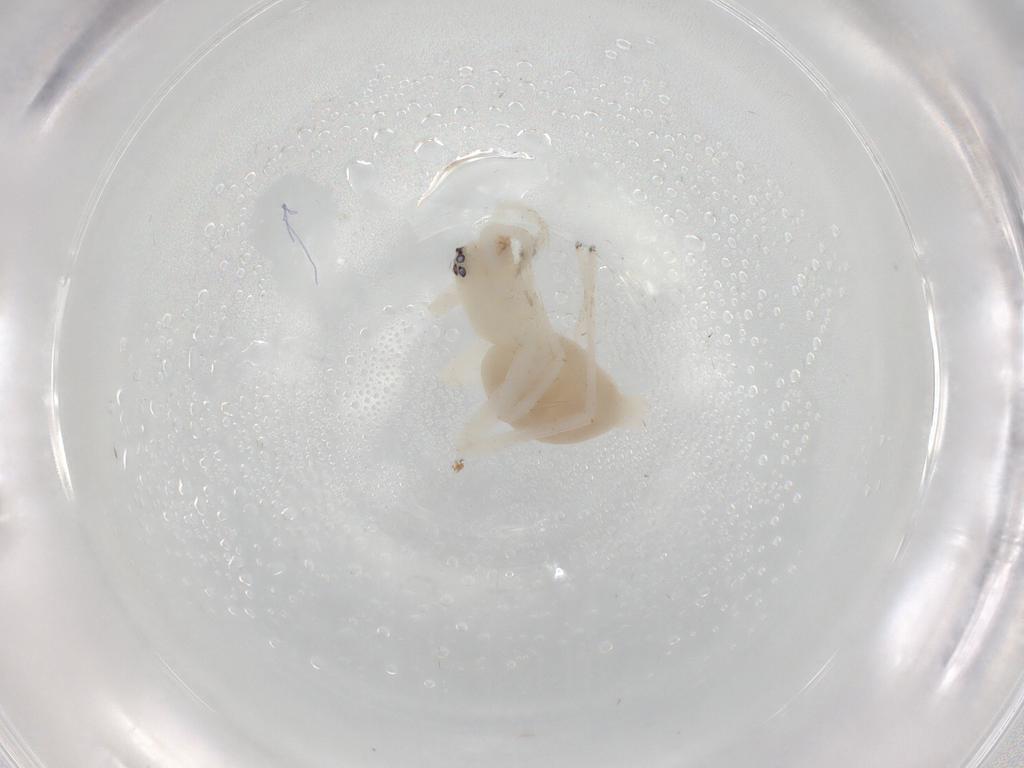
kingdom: Animalia
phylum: Arthropoda
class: Arachnida
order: Araneae
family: Anyphaenidae
